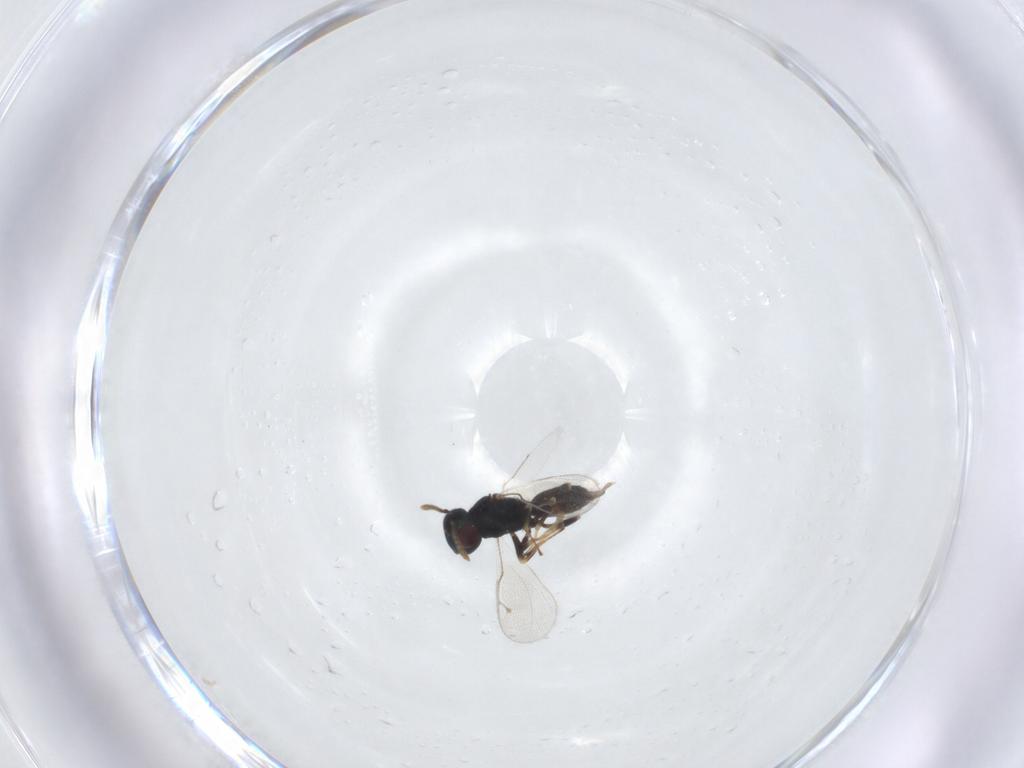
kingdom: Animalia
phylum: Arthropoda
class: Insecta
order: Hymenoptera
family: Pteromalidae
